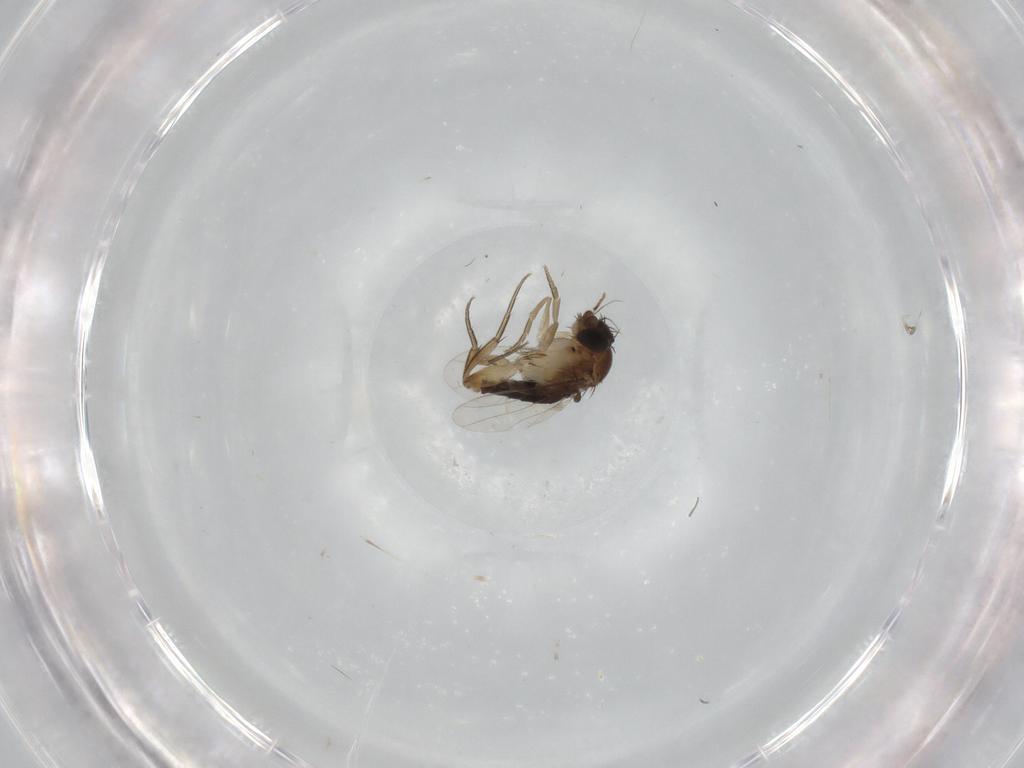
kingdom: Animalia
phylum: Arthropoda
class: Insecta
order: Diptera
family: Phoridae
